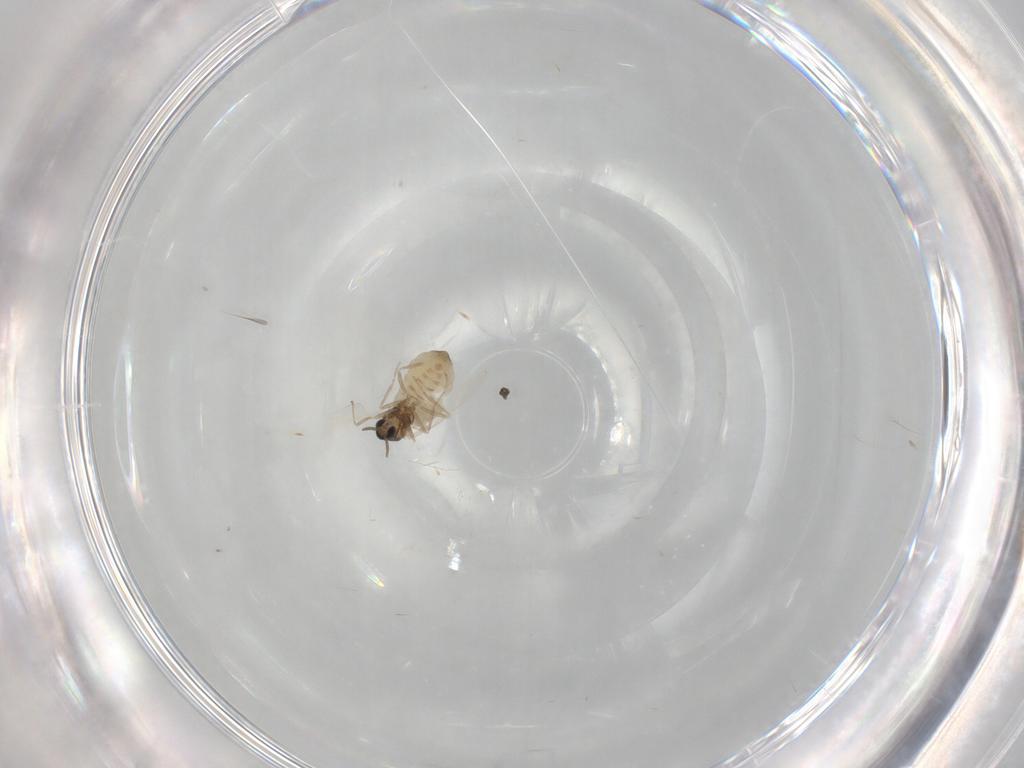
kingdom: Animalia
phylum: Arthropoda
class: Insecta
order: Diptera
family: Cecidomyiidae
